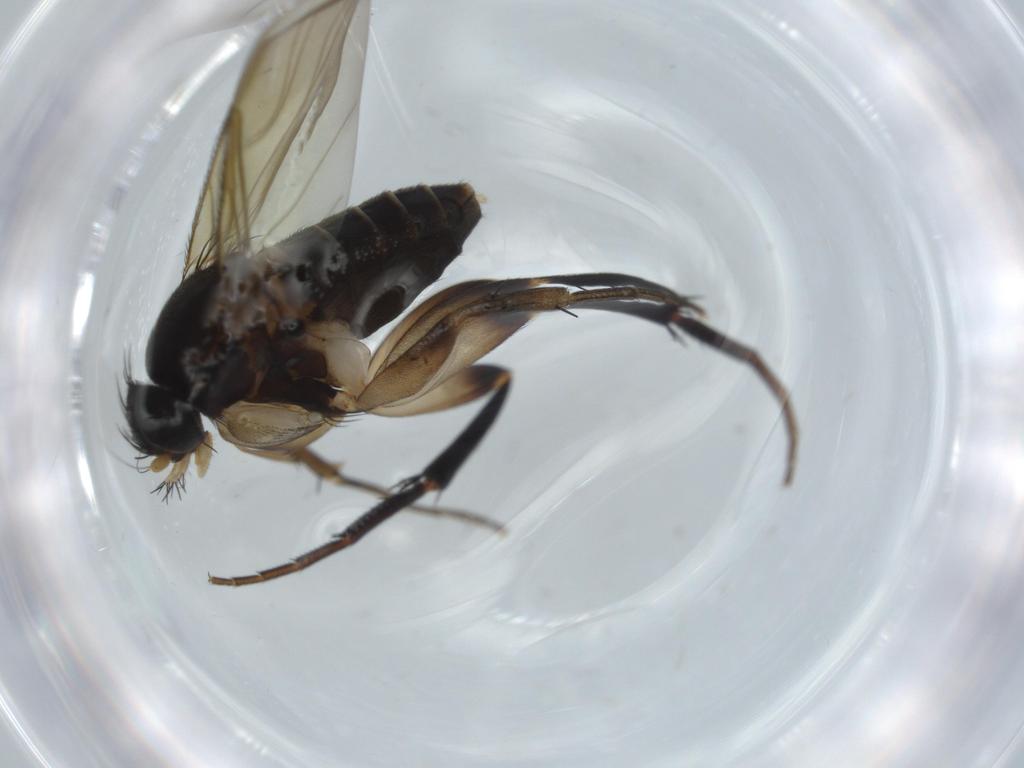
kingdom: Animalia
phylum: Arthropoda
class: Insecta
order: Diptera
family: Phoridae
